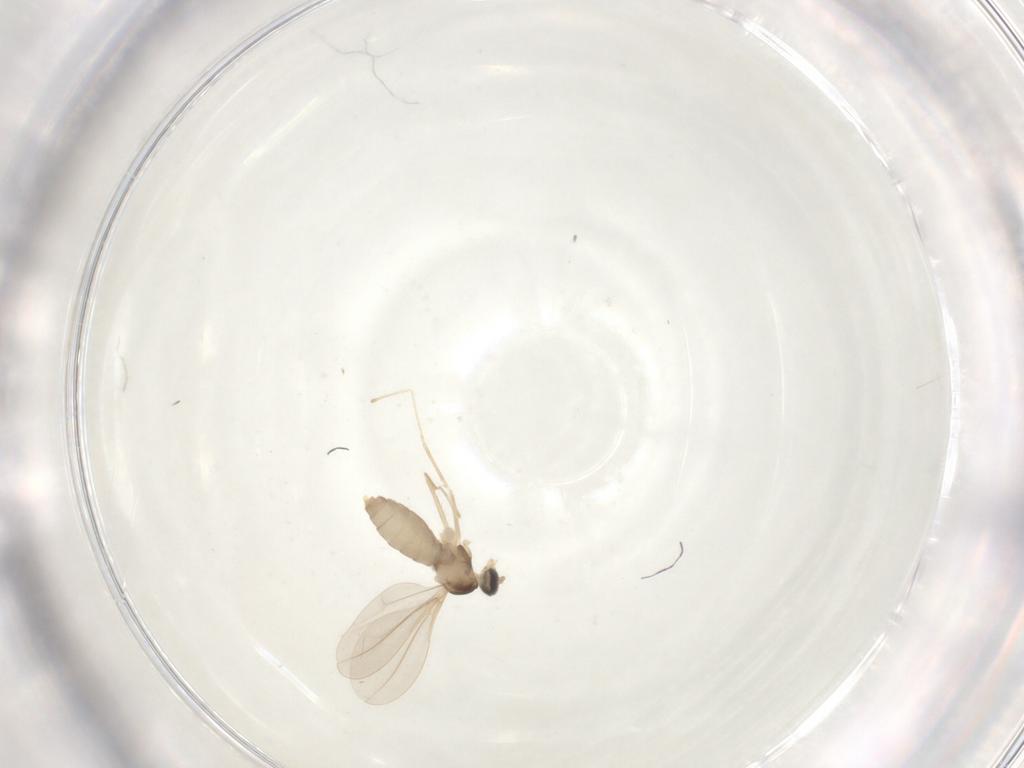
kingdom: Animalia
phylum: Arthropoda
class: Insecta
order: Diptera
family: Cecidomyiidae
